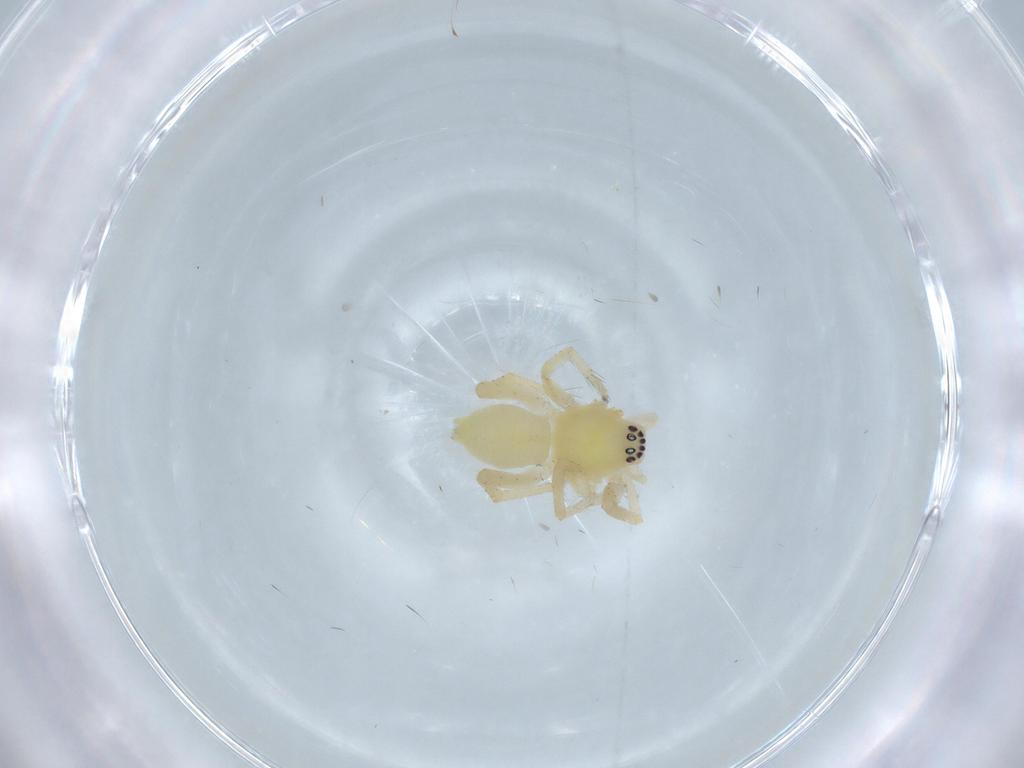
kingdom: Animalia
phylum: Arthropoda
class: Arachnida
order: Araneae
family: Anyphaenidae
